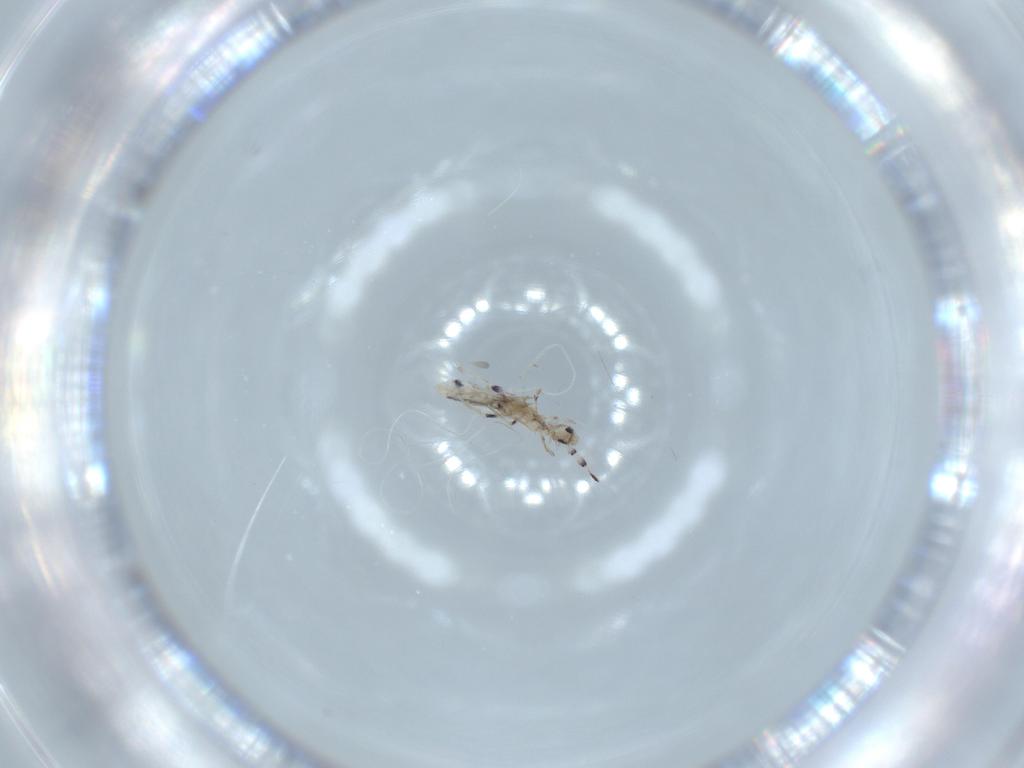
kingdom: Animalia
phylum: Arthropoda
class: Collembola
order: Entomobryomorpha
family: Entomobryidae
